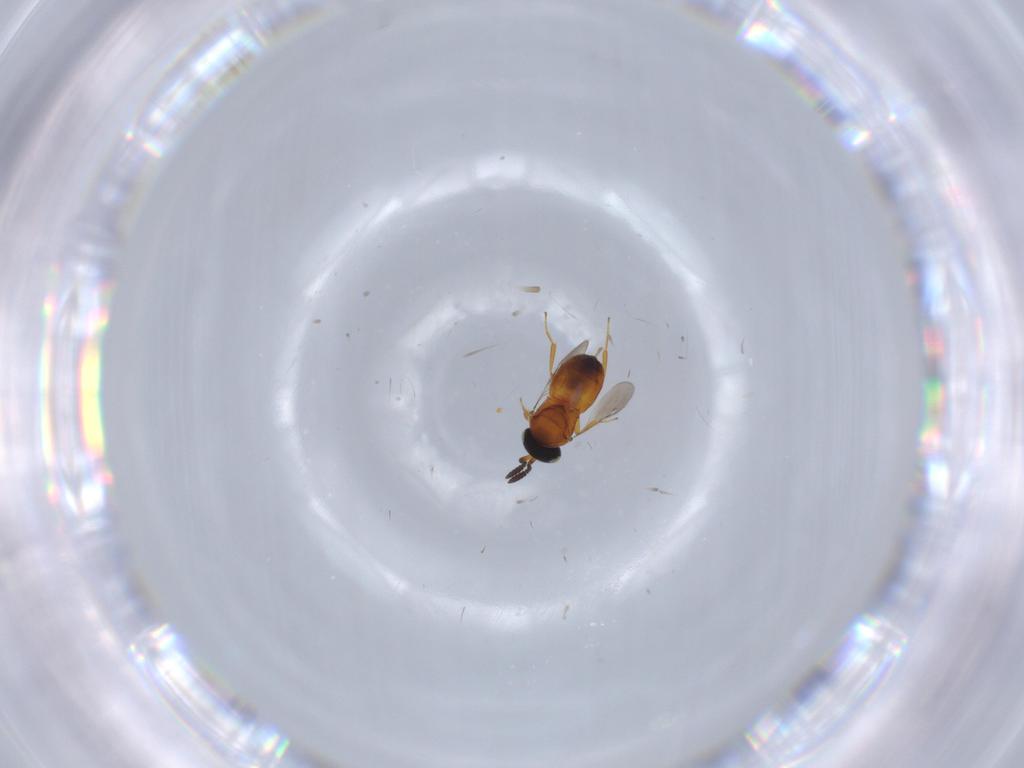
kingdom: Animalia
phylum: Arthropoda
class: Insecta
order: Hymenoptera
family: Scelionidae
